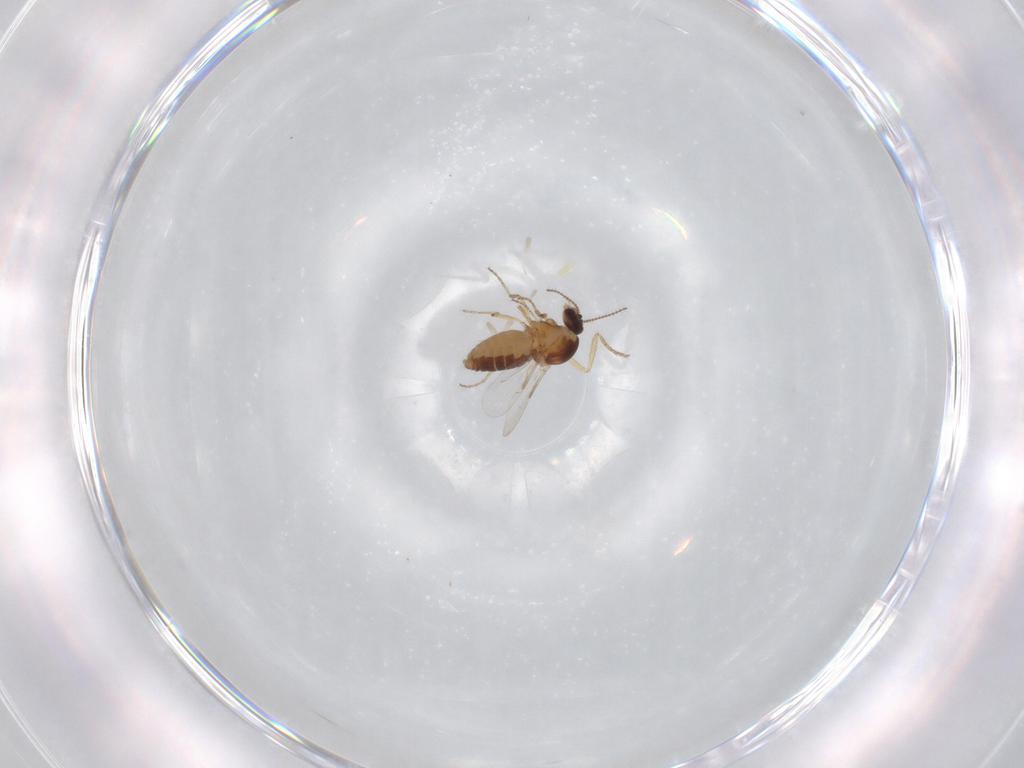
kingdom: Animalia
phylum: Arthropoda
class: Insecta
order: Diptera
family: Ceratopogonidae
